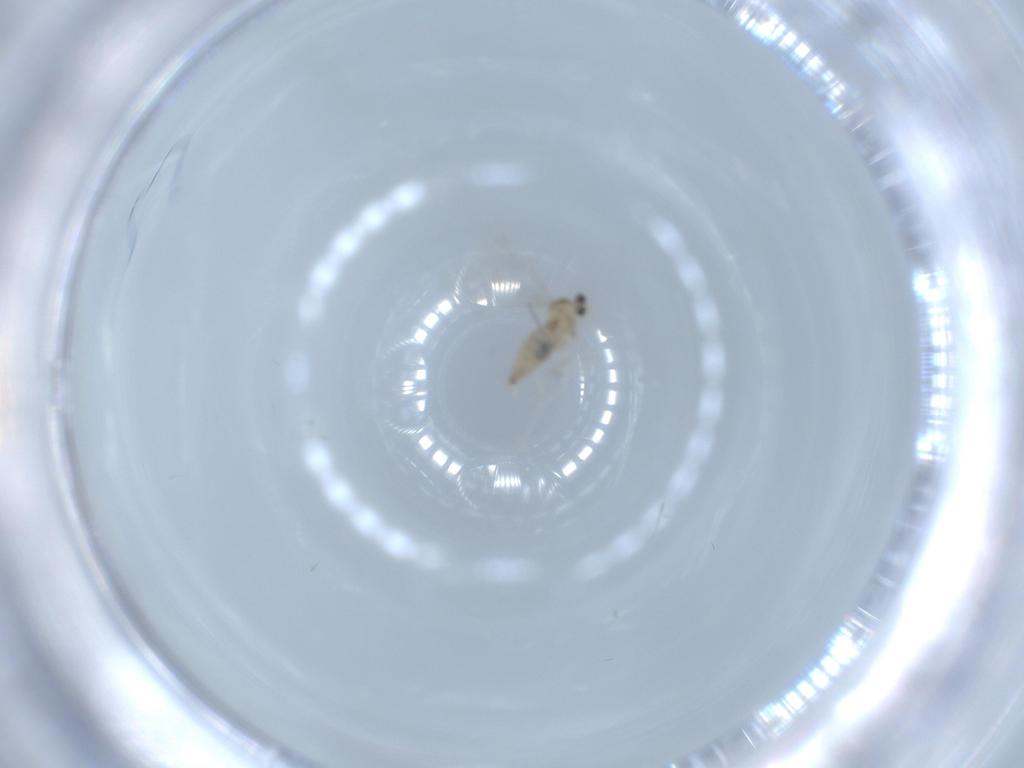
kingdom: Animalia
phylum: Arthropoda
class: Insecta
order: Diptera
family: Cecidomyiidae
